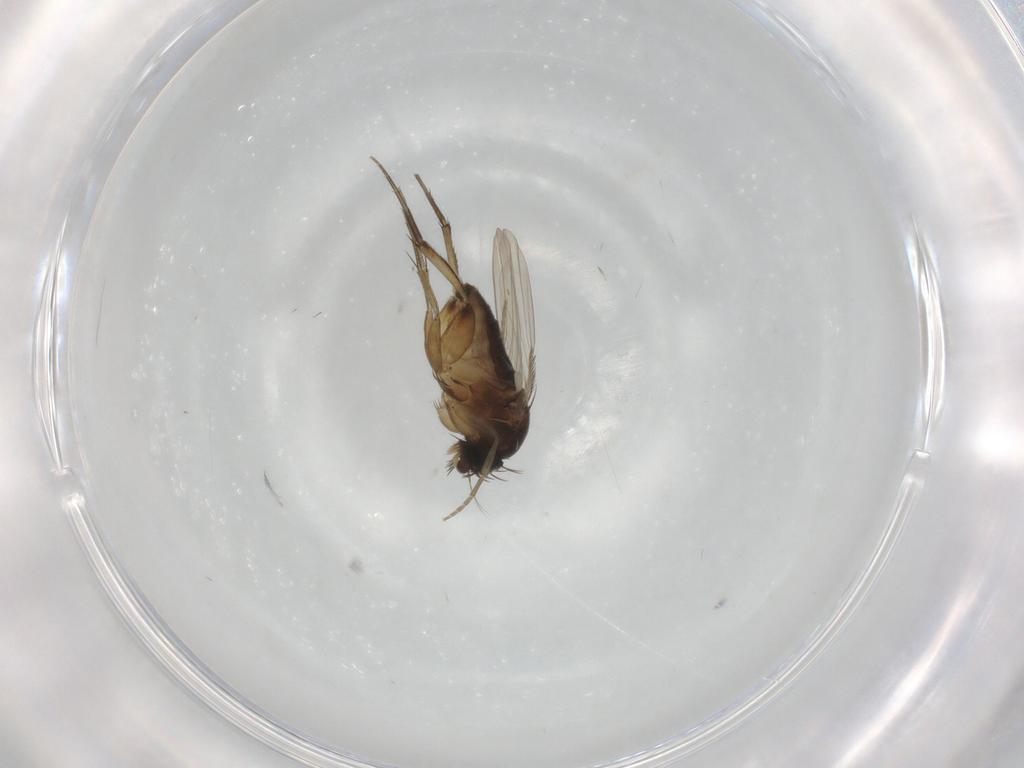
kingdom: Animalia
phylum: Arthropoda
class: Insecta
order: Diptera
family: Phoridae
